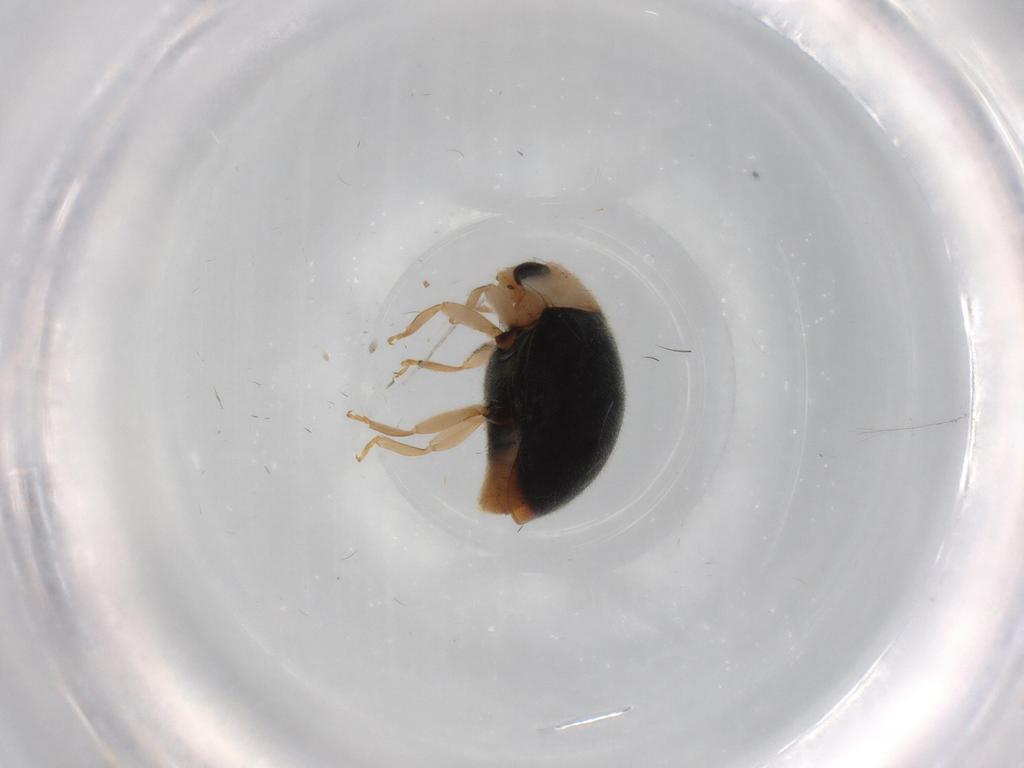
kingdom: Animalia
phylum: Arthropoda
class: Insecta
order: Coleoptera
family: Coccinellidae
